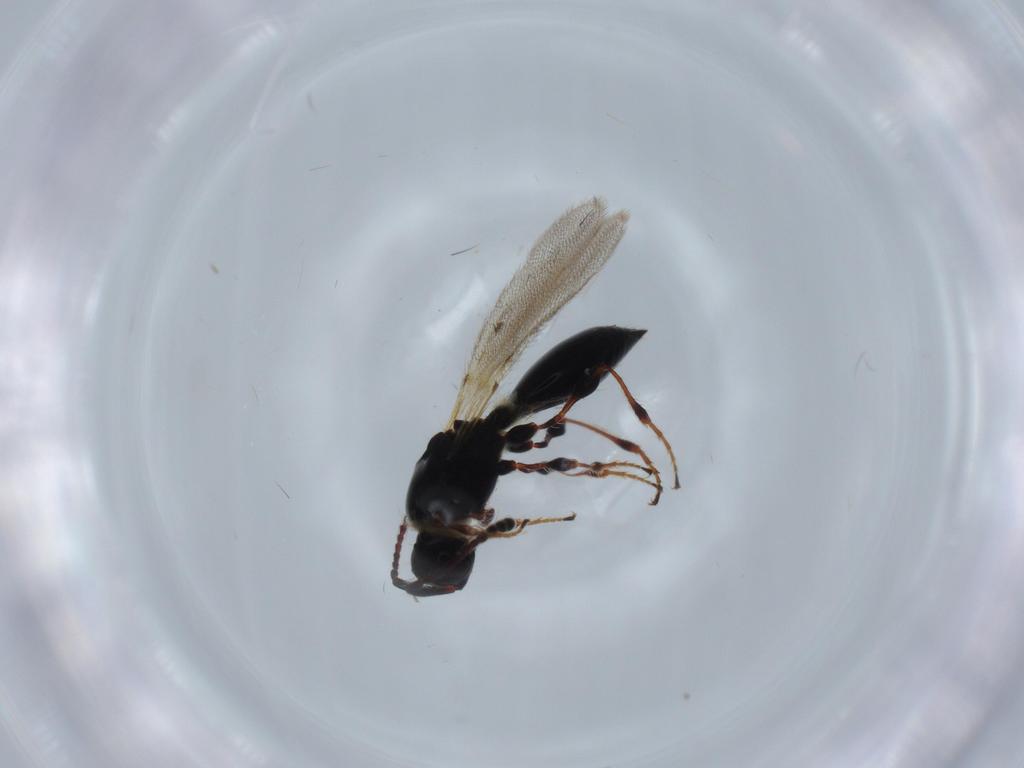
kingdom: Animalia
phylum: Arthropoda
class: Insecta
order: Hymenoptera
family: Diapriidae
